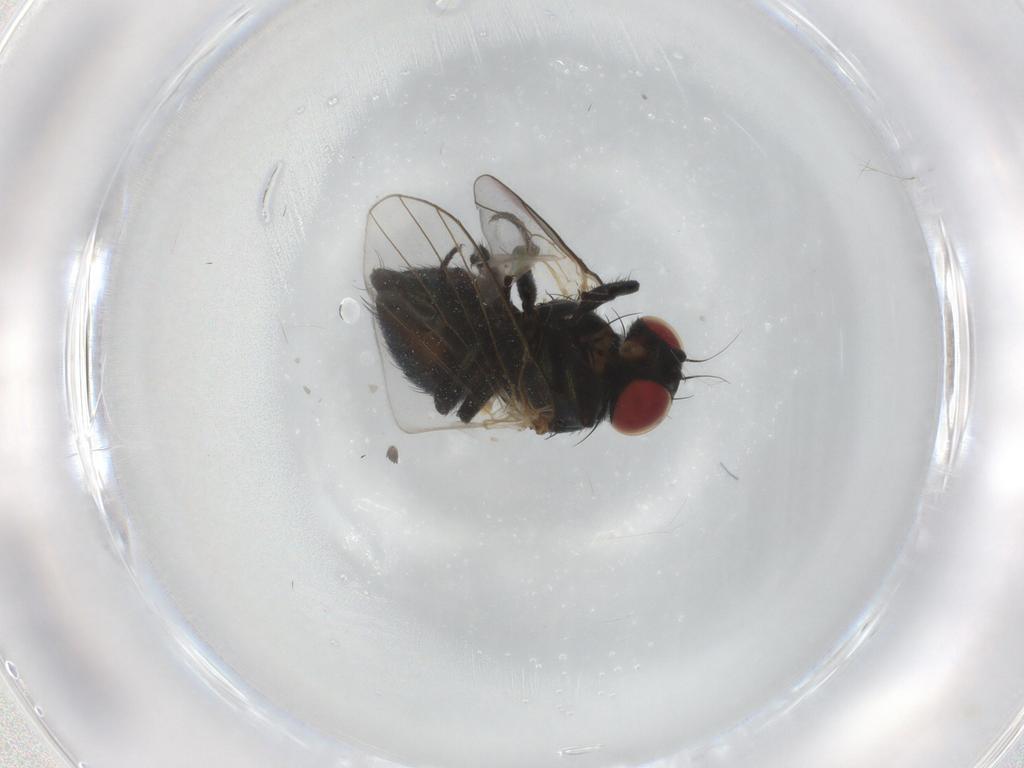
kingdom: Animalia
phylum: Arthropoda
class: Insecta
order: Diptera
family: Agromyzidae
